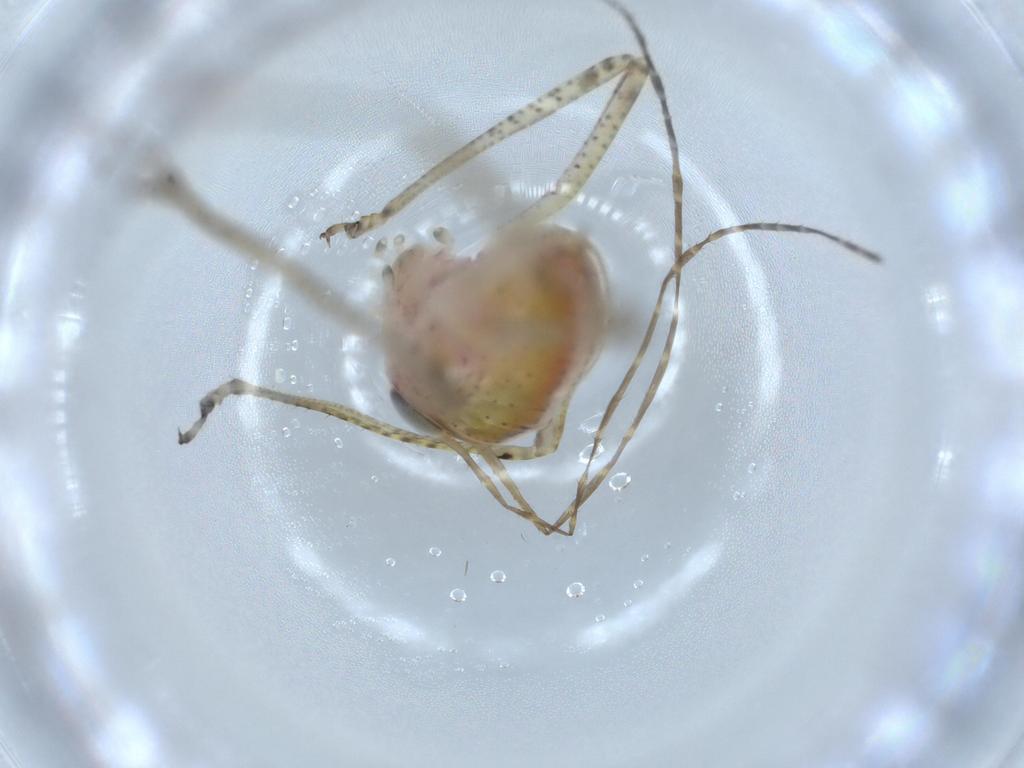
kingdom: Animalia
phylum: Arthropoda
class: Insecta
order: Orthoptera
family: Tettigoniidae
